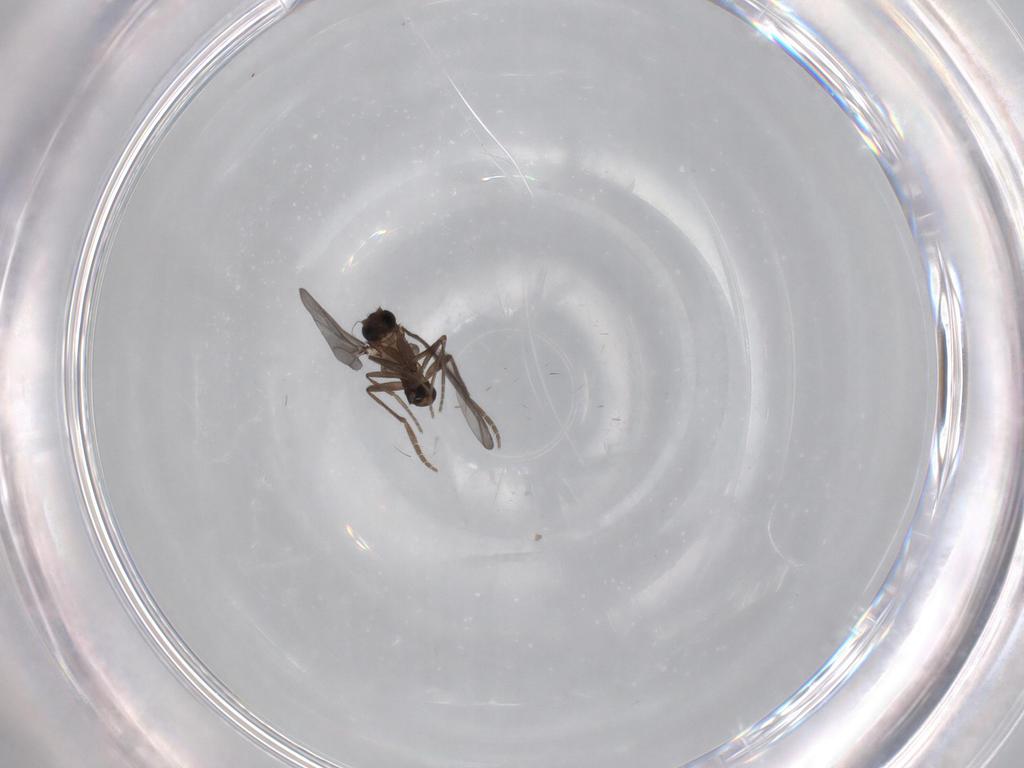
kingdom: Animalia
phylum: Arthropoda
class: Insecta
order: Diptera
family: Phoridae
